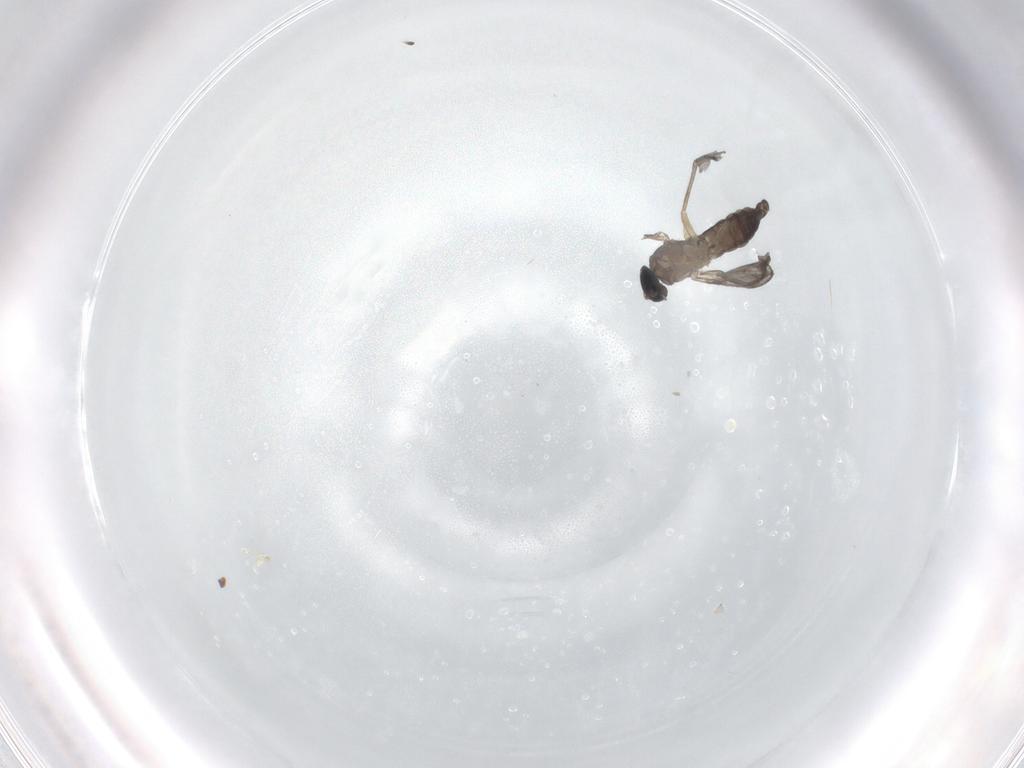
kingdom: Animalia
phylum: Arthropoda
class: Insecta
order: Diptera
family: Sciaridae
